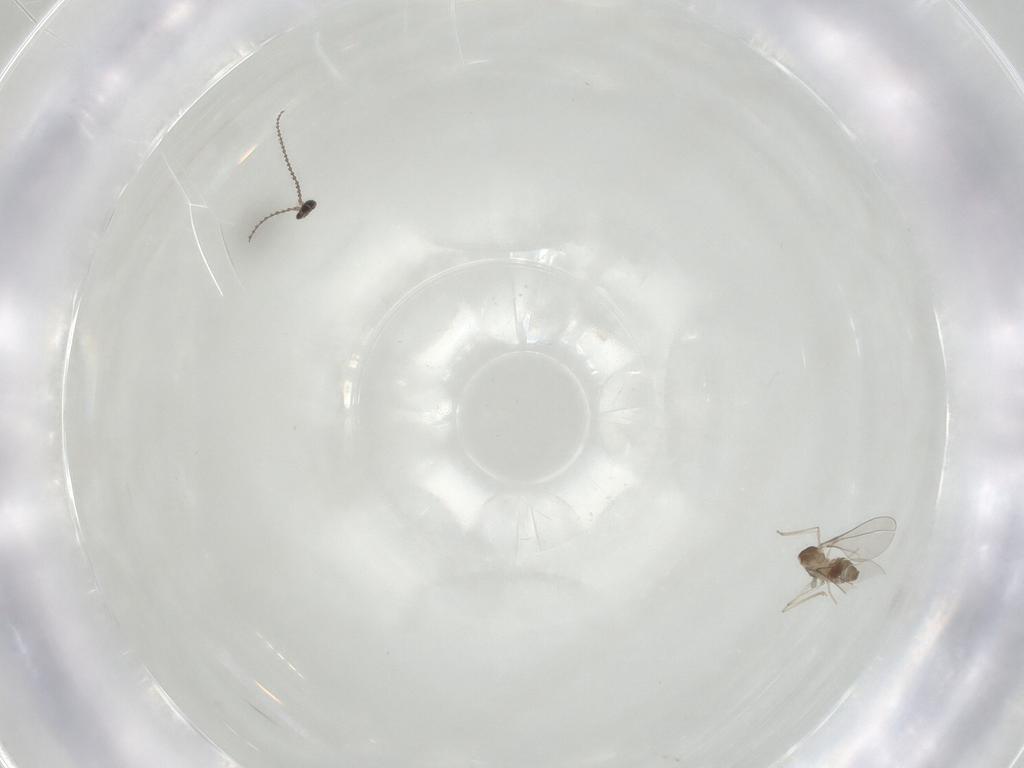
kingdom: Animalia
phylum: Arthropoda
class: Insecta
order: Diptera
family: Cecidomyiidae
